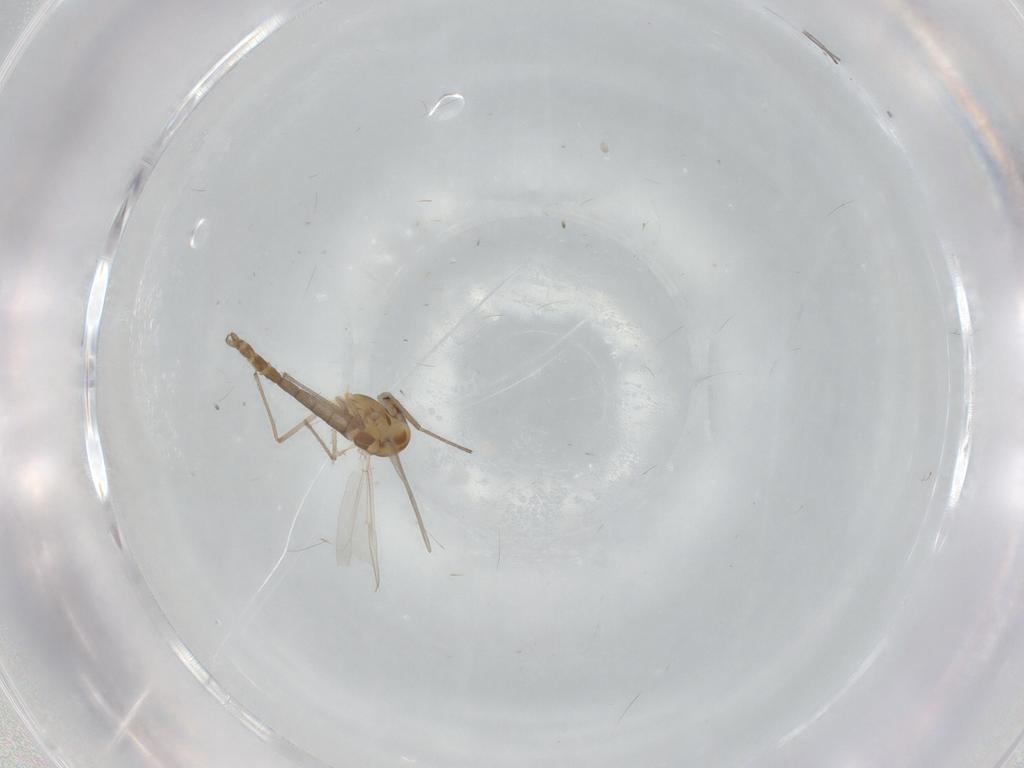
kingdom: Animalia
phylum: Arthropoda
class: Insecta
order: Diptera
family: Chironomidae
